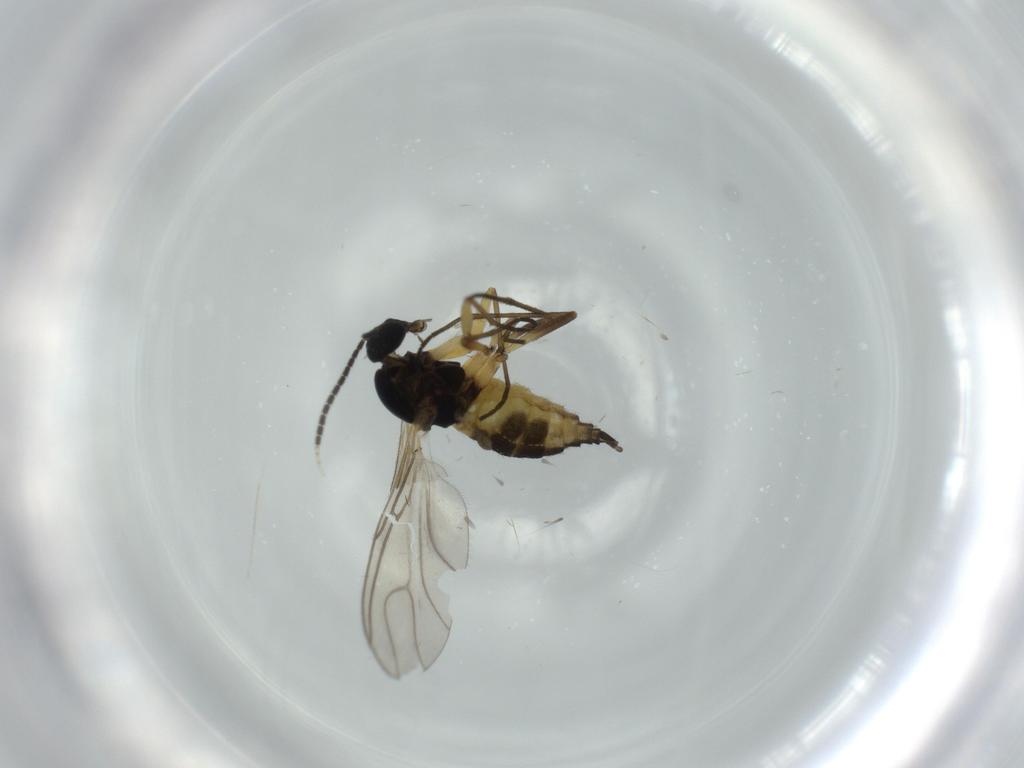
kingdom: Animalia
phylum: Arthropoda
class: Insecta
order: Diptera
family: Sciaridae
